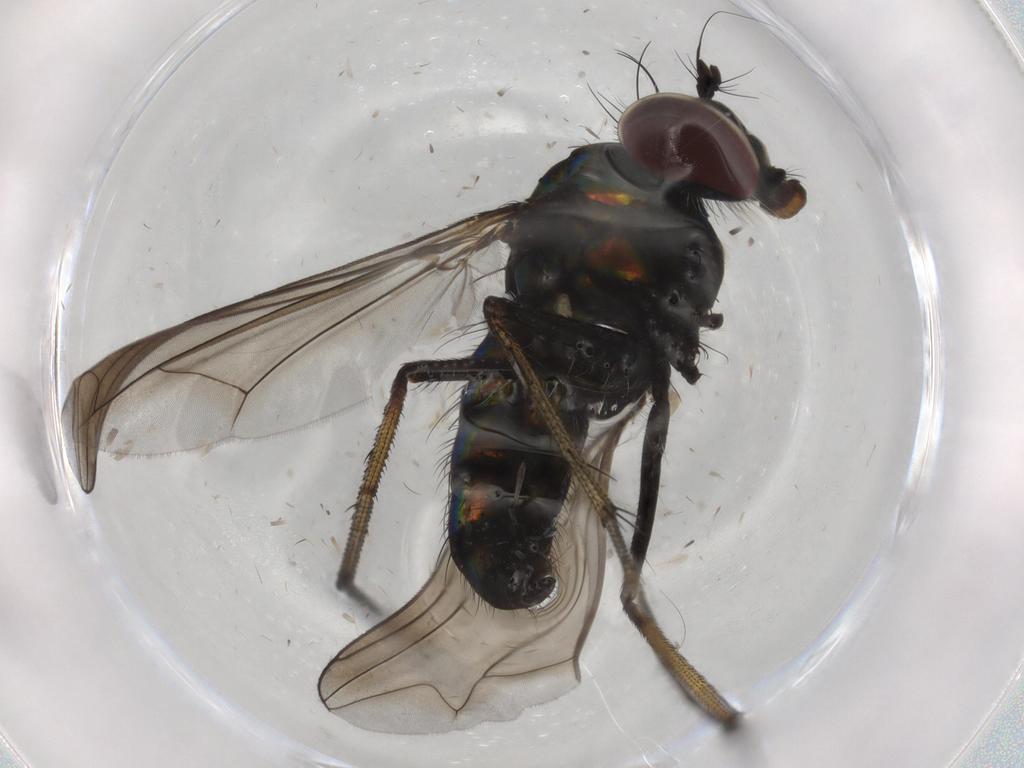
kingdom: Animalia
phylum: Arthropoda
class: Insecta
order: Diptera
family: Dolichopodidae
